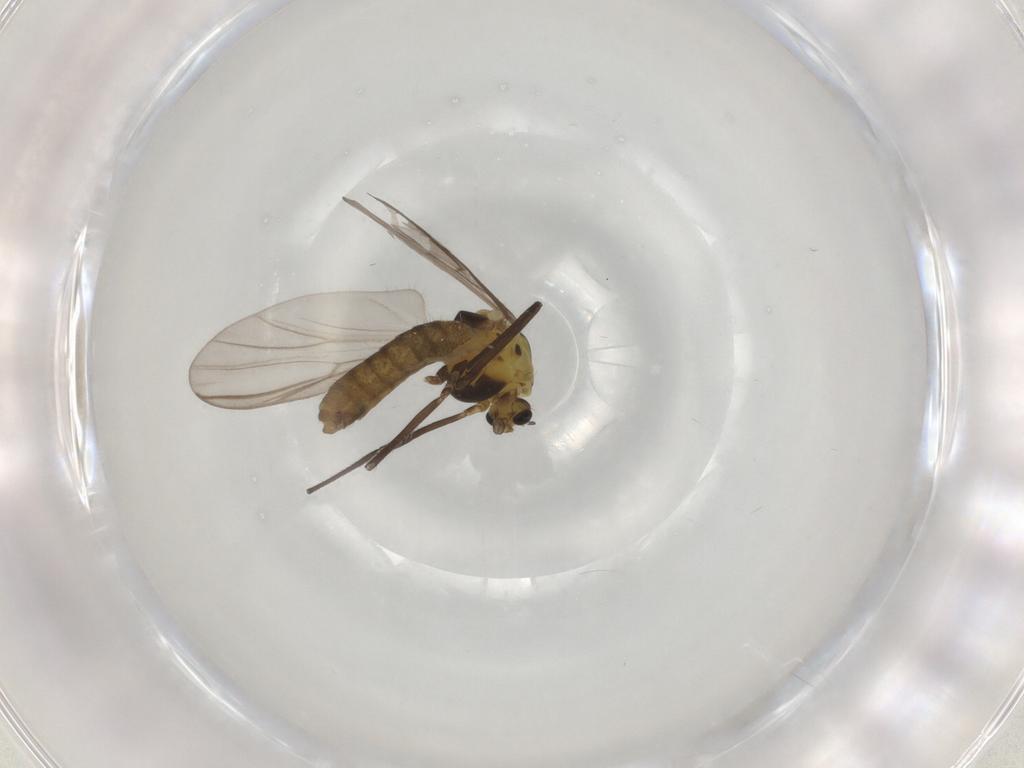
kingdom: Animalia
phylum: Arthropoda
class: Insecta
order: Diptera
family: Chironomidae
